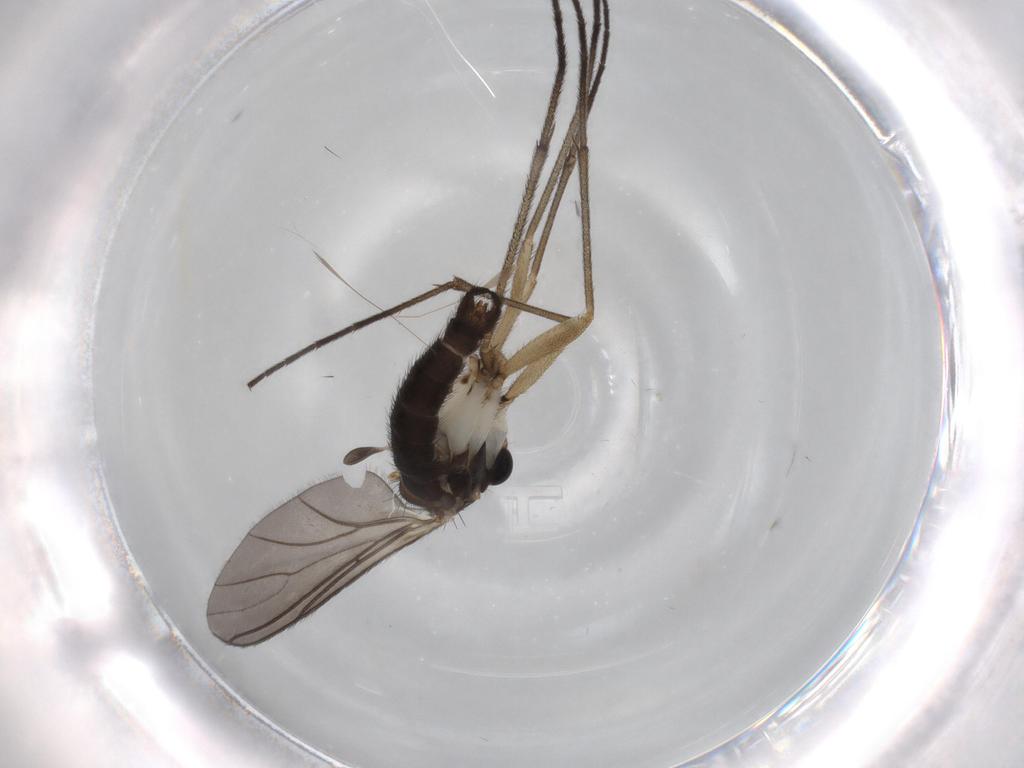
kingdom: Animalia
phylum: Arthropoda
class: Insecta
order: Diptera
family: Sciaridae
